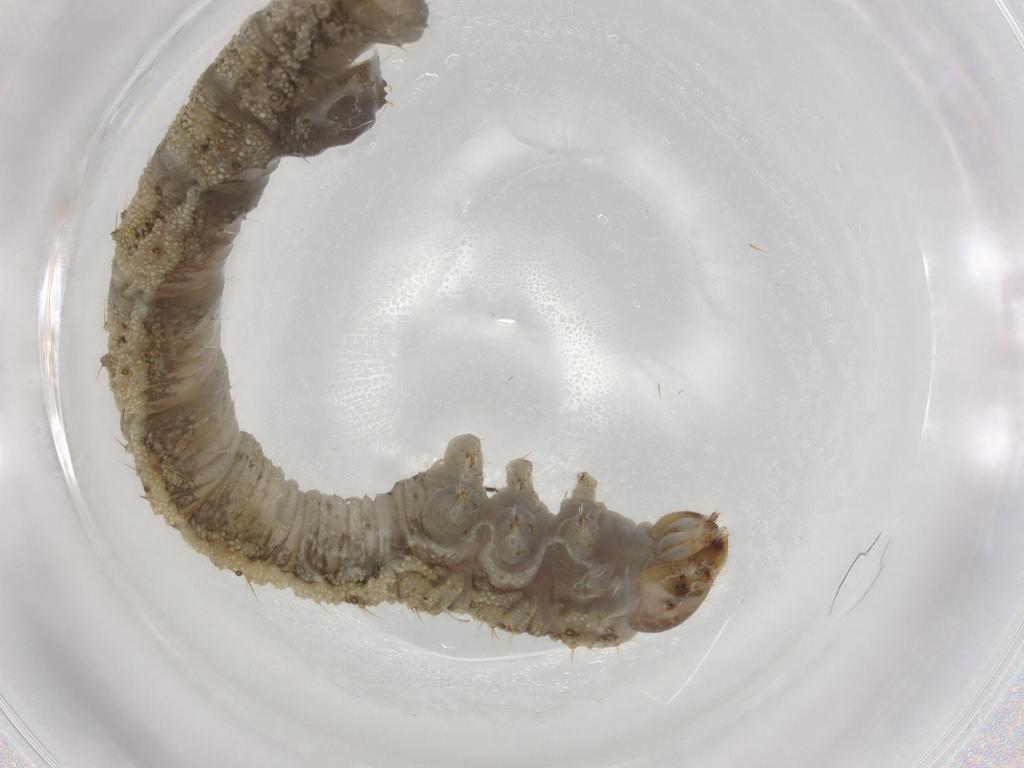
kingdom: Animalia
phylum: Arthropoda
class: Insecta
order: Lepidoptera
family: Geometridae
